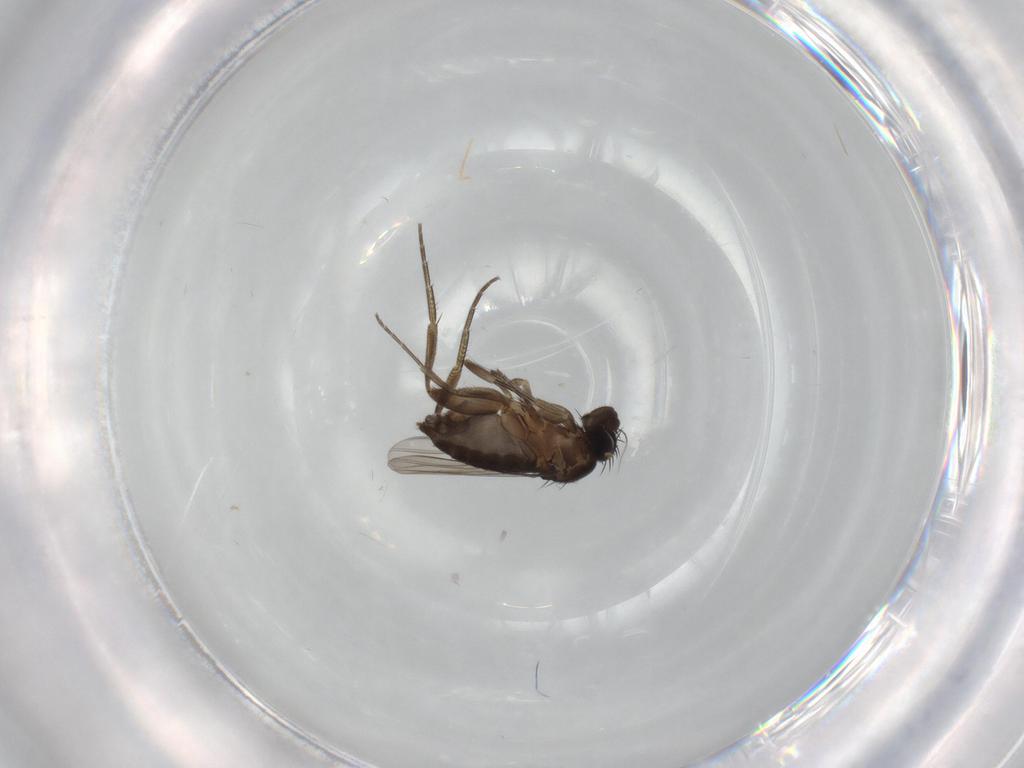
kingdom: Animalia
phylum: Arthropoda
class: Insecta
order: Diptera
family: Phoridae
